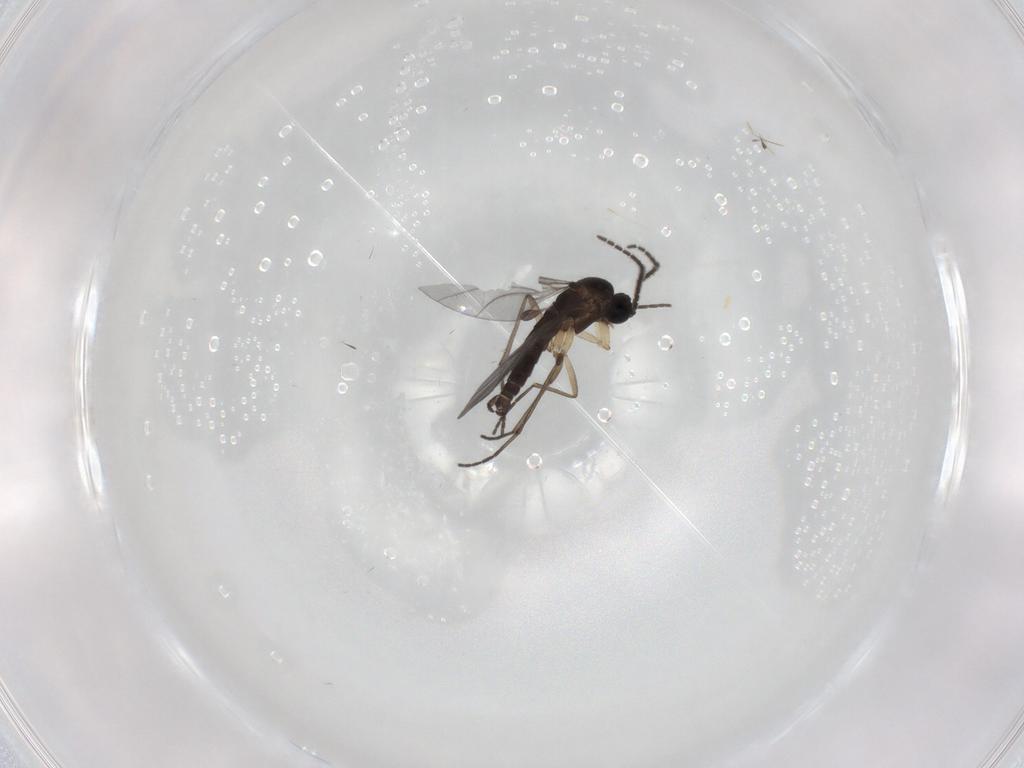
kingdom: Animalia
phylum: Arthropoda
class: Insecta
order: Diptera
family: Sciaridae
